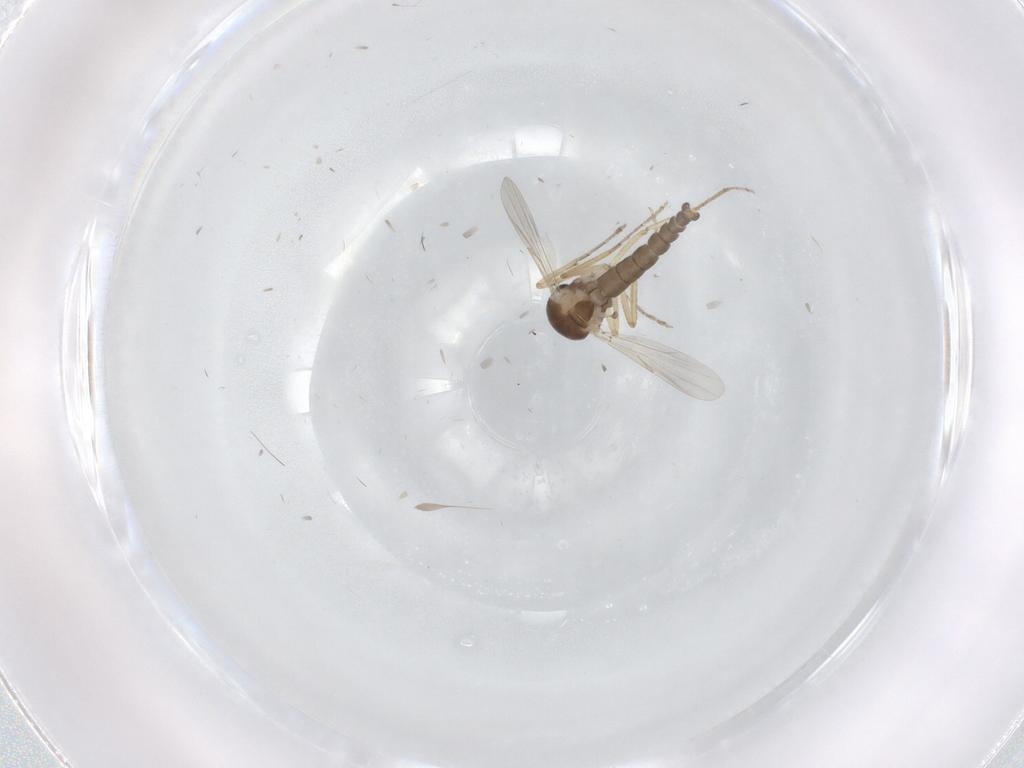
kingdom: Animalia
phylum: Arthropoda
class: Insecta
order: Diptera
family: Ceratopogonidae
